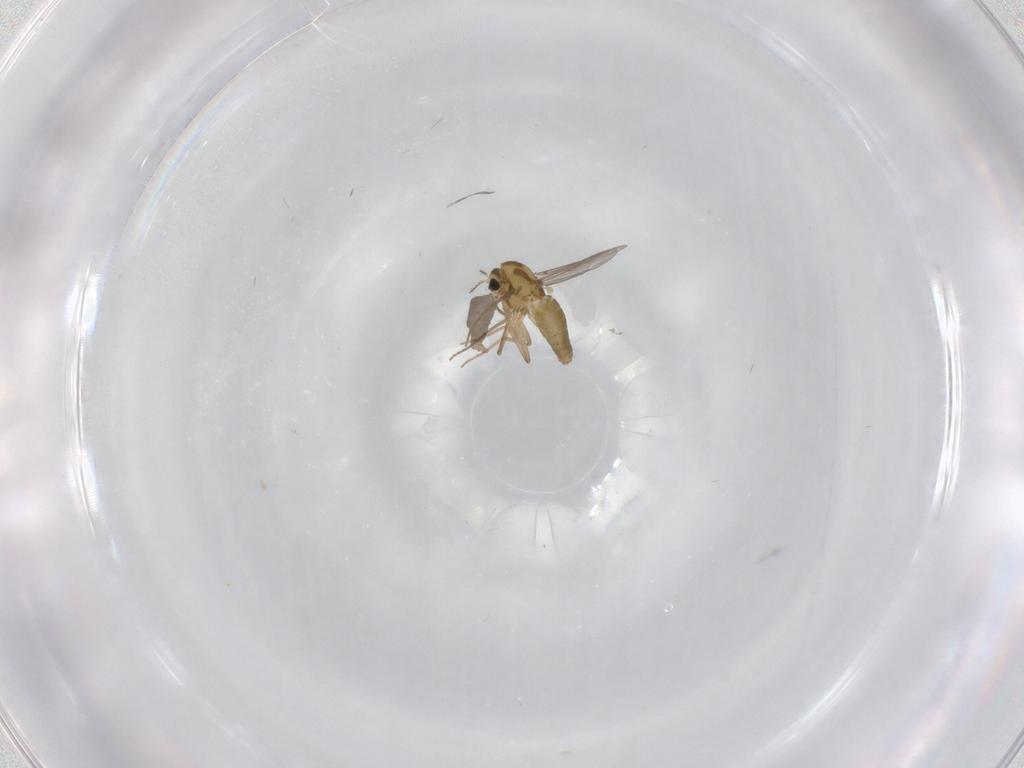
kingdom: Animalia
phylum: Arthropoda
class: Insecta
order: Diptera
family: Chironomidae
